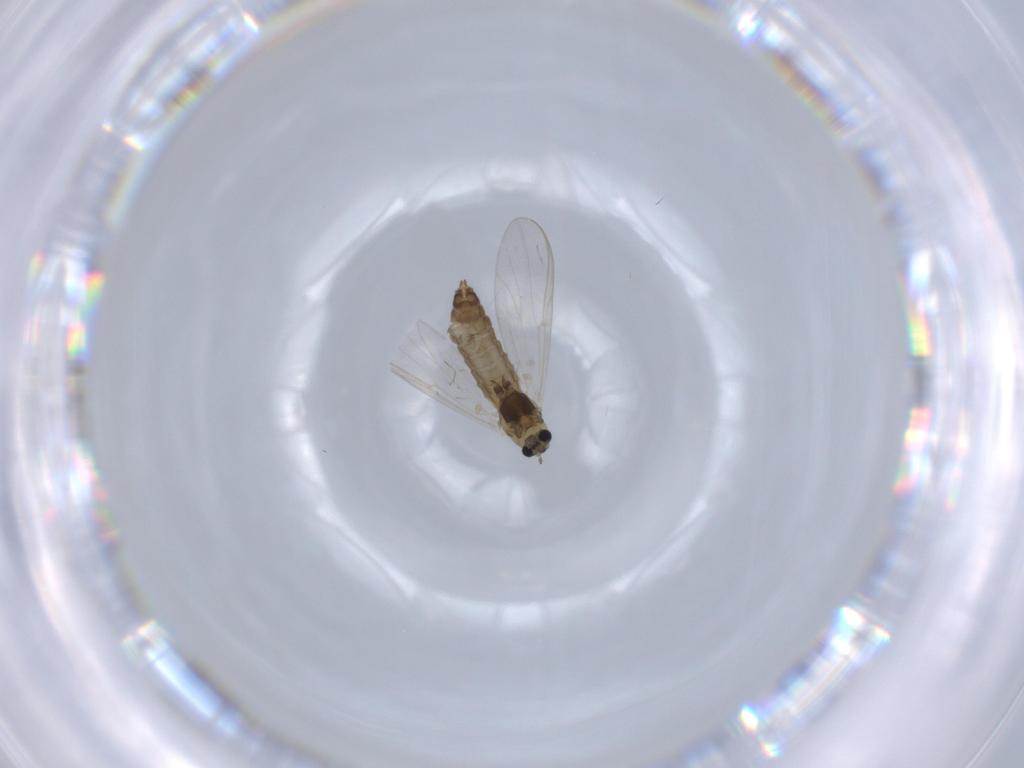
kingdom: Animalia
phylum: Arthropoda
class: Insecta
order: Diptera
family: Chironomidae
